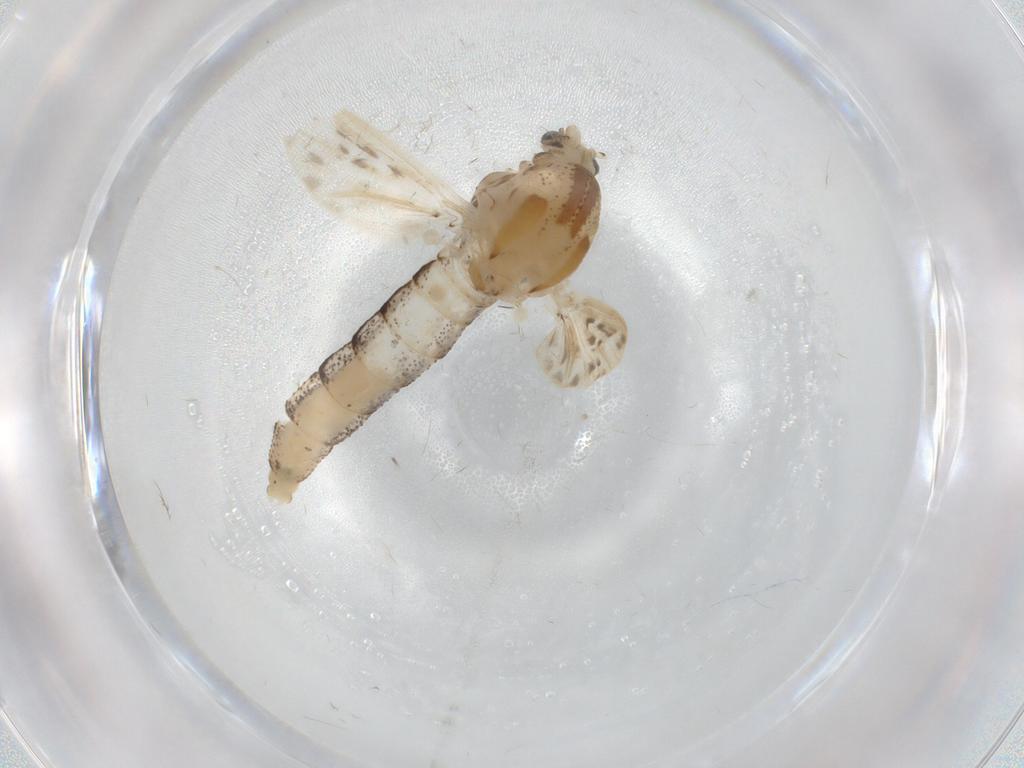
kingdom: Animalia
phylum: Arthropoda
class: Insecta
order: Diptera
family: Chaoboridae
